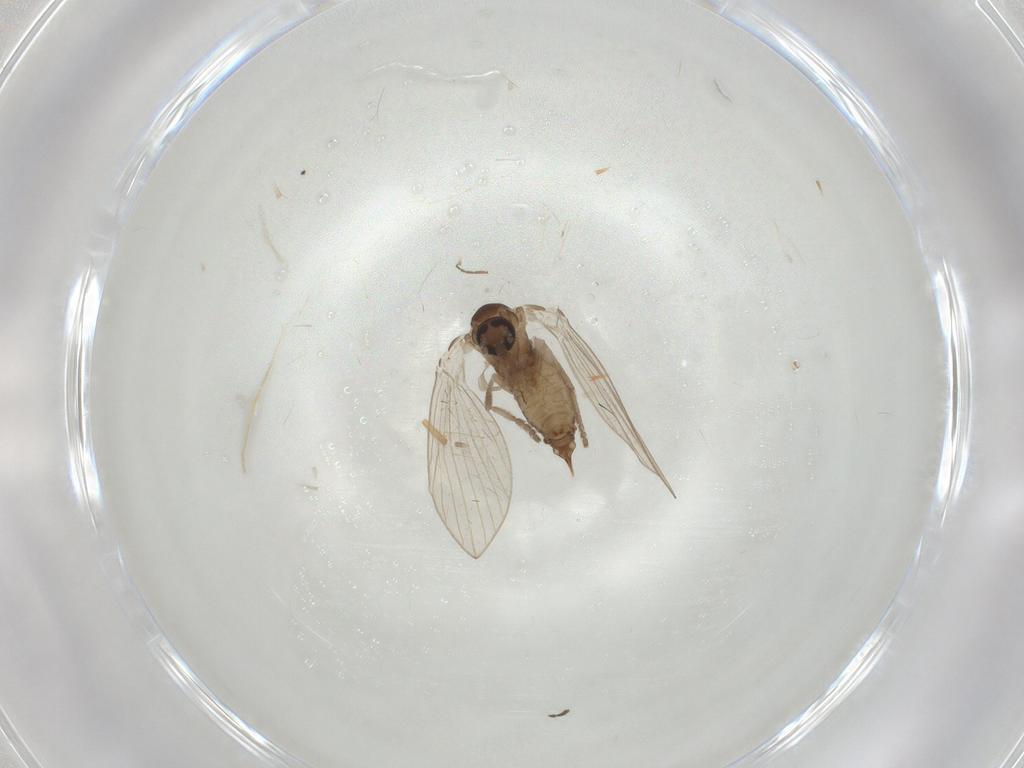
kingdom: Animalia
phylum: Arthropoda
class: Insecta
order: Diptera
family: Chironomidae
